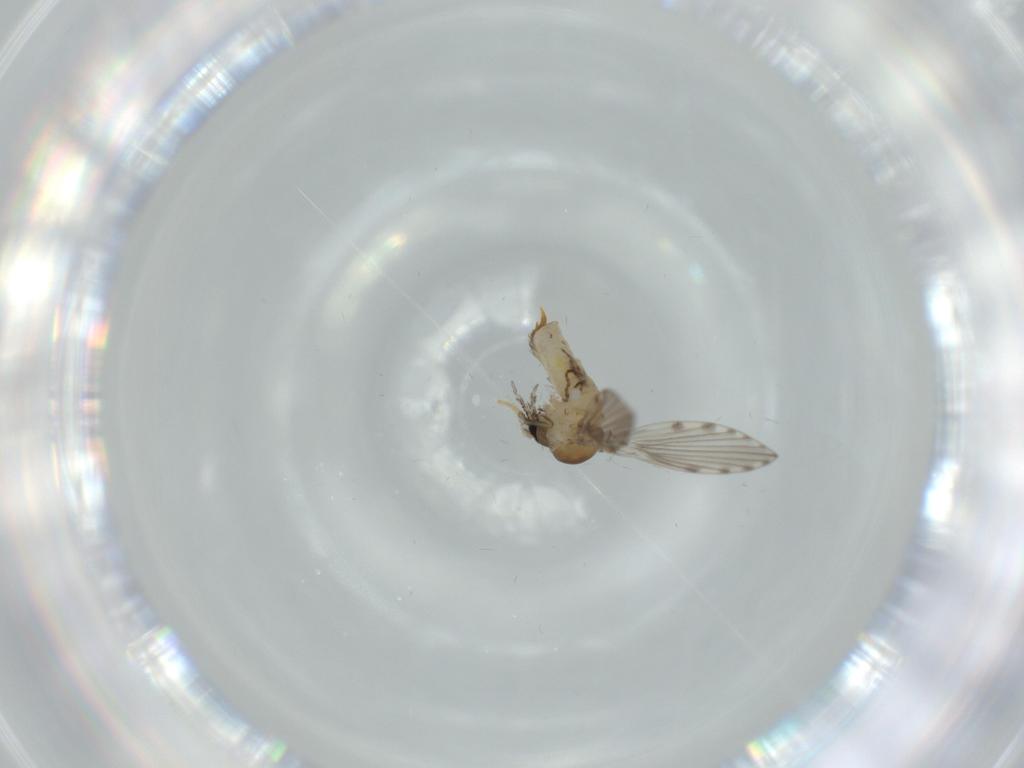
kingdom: Animalia
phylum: Arthropoda
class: Insecta
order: Diptera
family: Psychodidae
